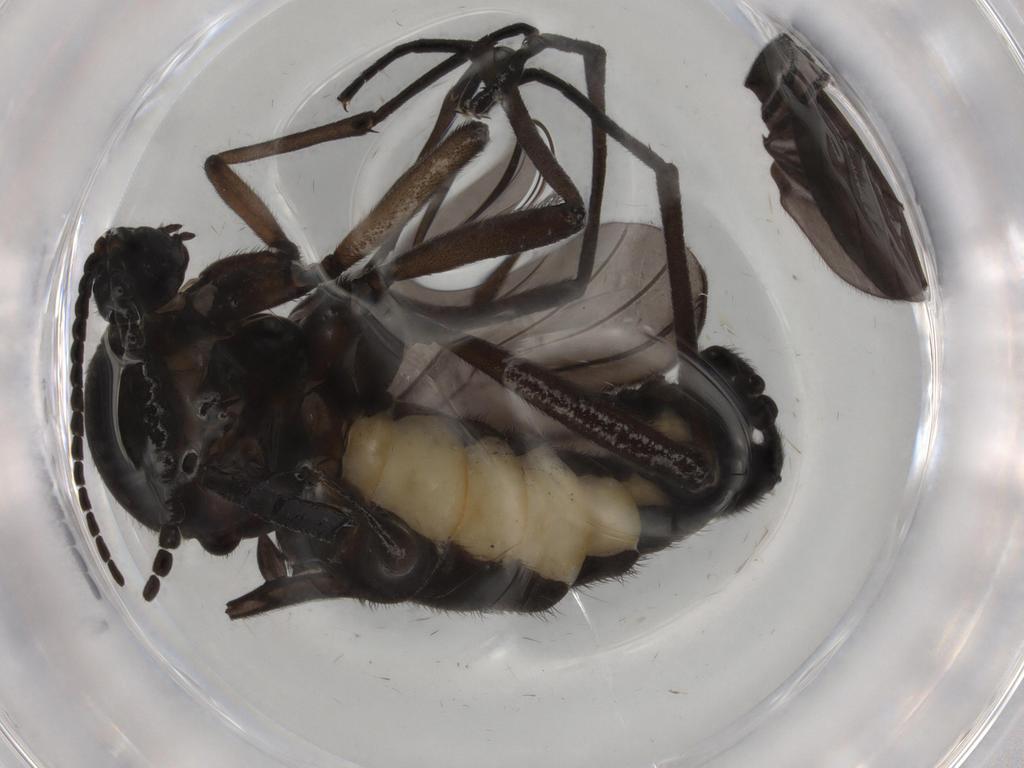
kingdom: Animalia
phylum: Arthropoda
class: Insecta
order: Diptera
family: Sciaridae
